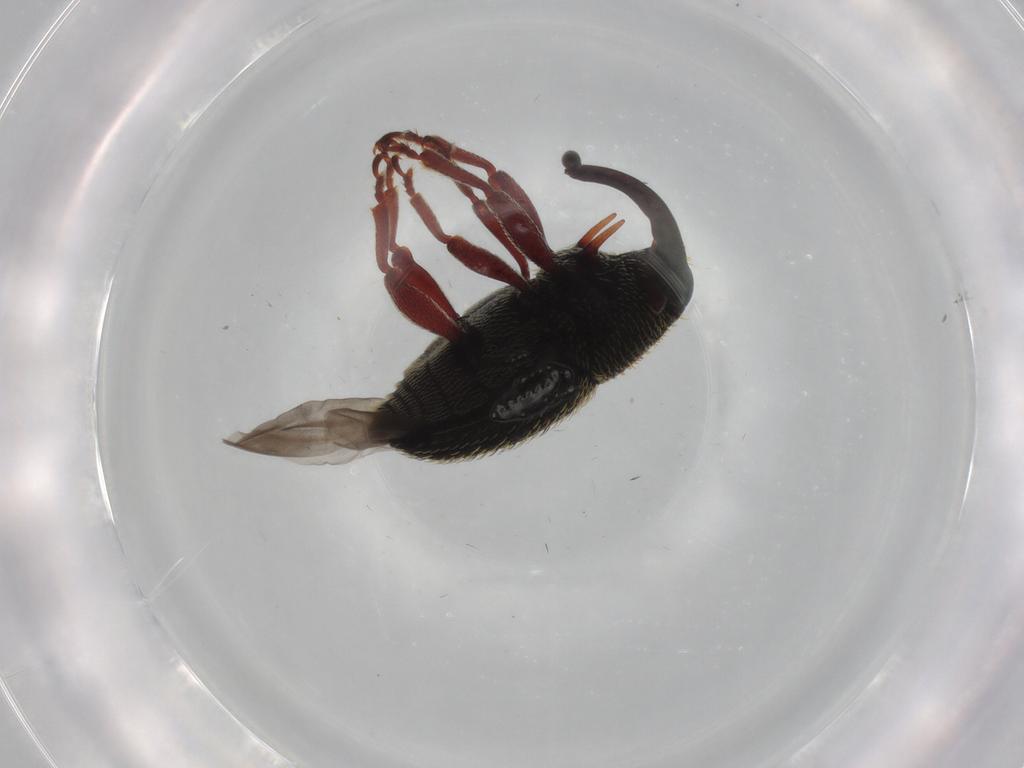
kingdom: Animalia
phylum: Arthropoda
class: Insecta
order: Coleoptera
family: Curculionidae
